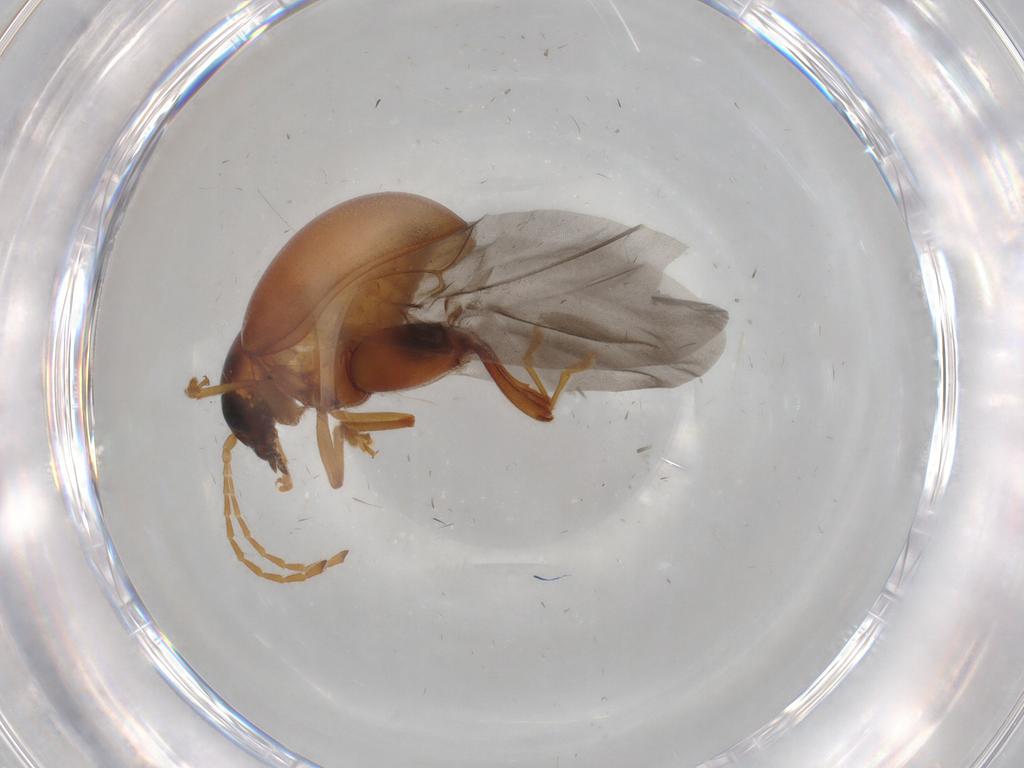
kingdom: Animalia
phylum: Arthropoda
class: Insecta
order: Coleoptera
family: Chrysomelidae
